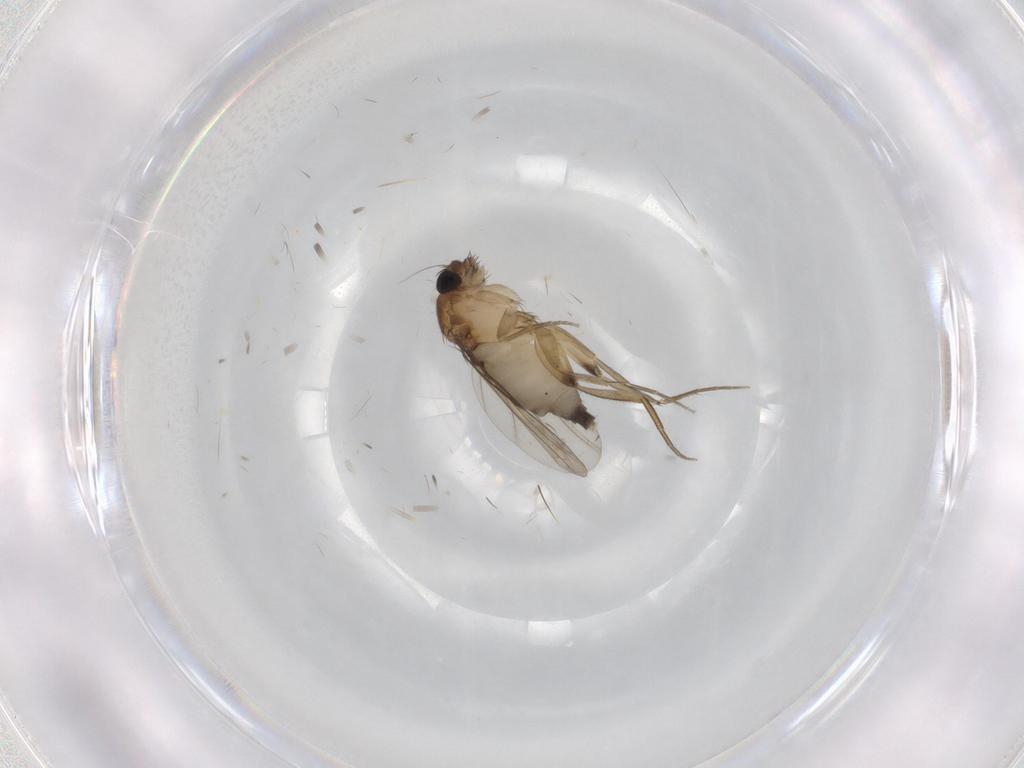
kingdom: Animalia
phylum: Arthropoda
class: Insecta
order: Diptera
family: Phoridae
